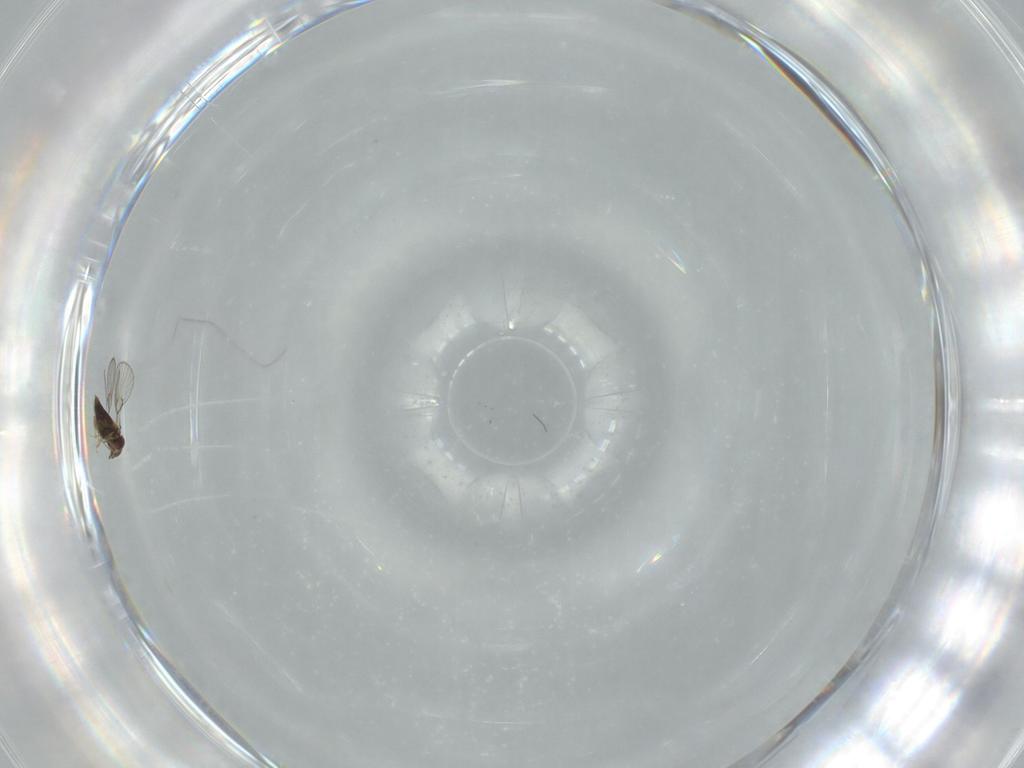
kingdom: Animalia
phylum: Arthropoda
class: Insecta
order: Hymenoptera
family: Trichogrammatidae
